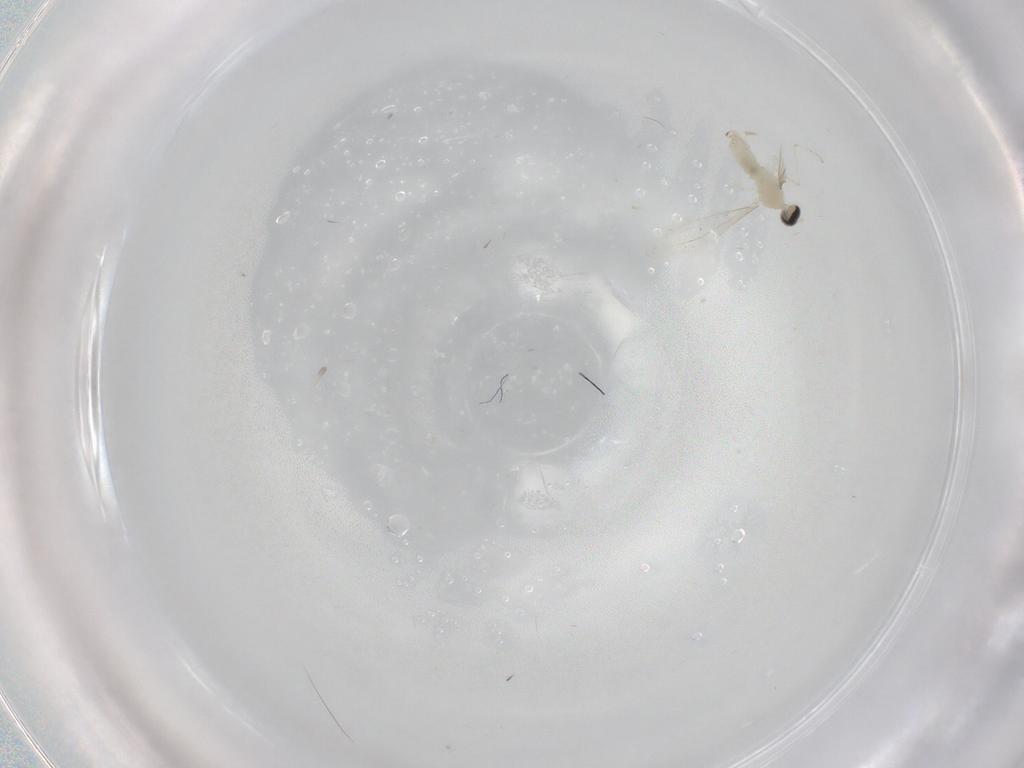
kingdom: Animalia
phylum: Arthropoda
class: Insecta
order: Diptera
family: Cecidomyiidae
